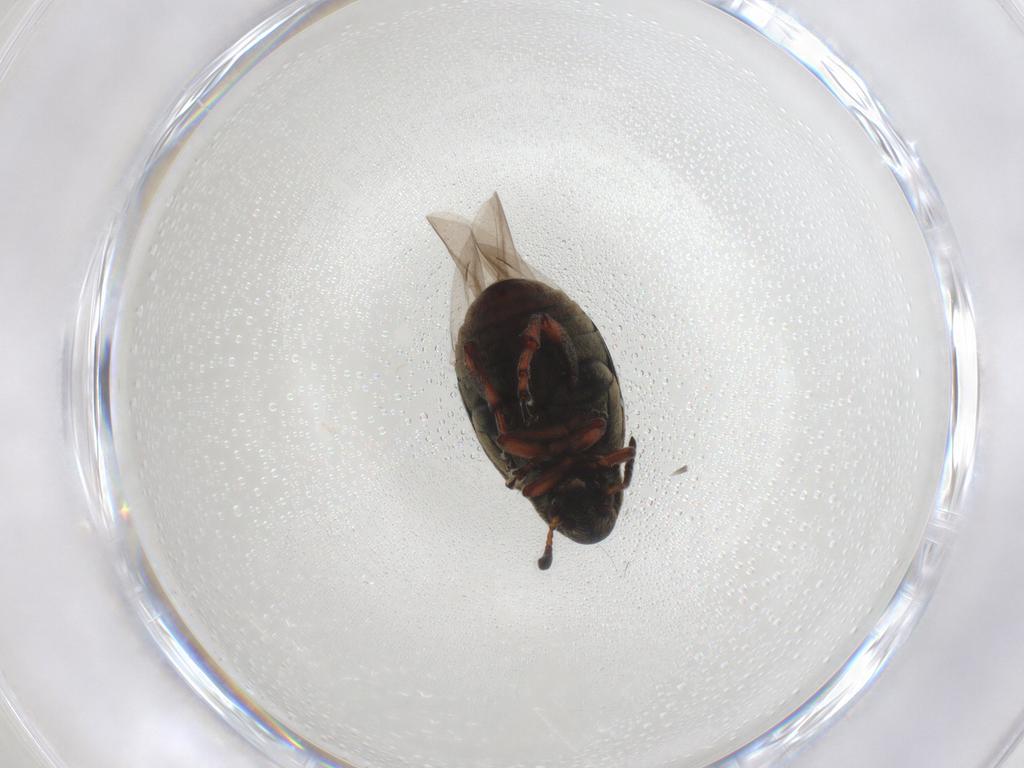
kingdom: Animalia
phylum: Arthropoda
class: Insecta
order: Coleoptera
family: Chrysomelidae
